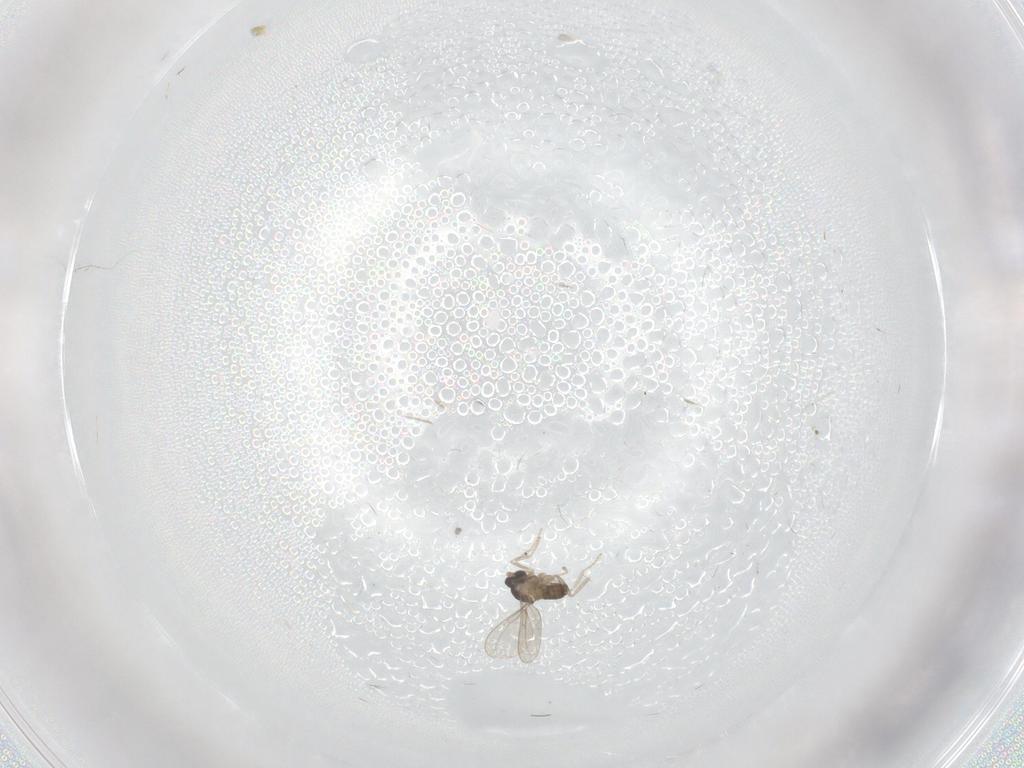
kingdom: Animalia
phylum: Arthropoda
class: Insecta
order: Diptera
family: Cecidomyiidae
